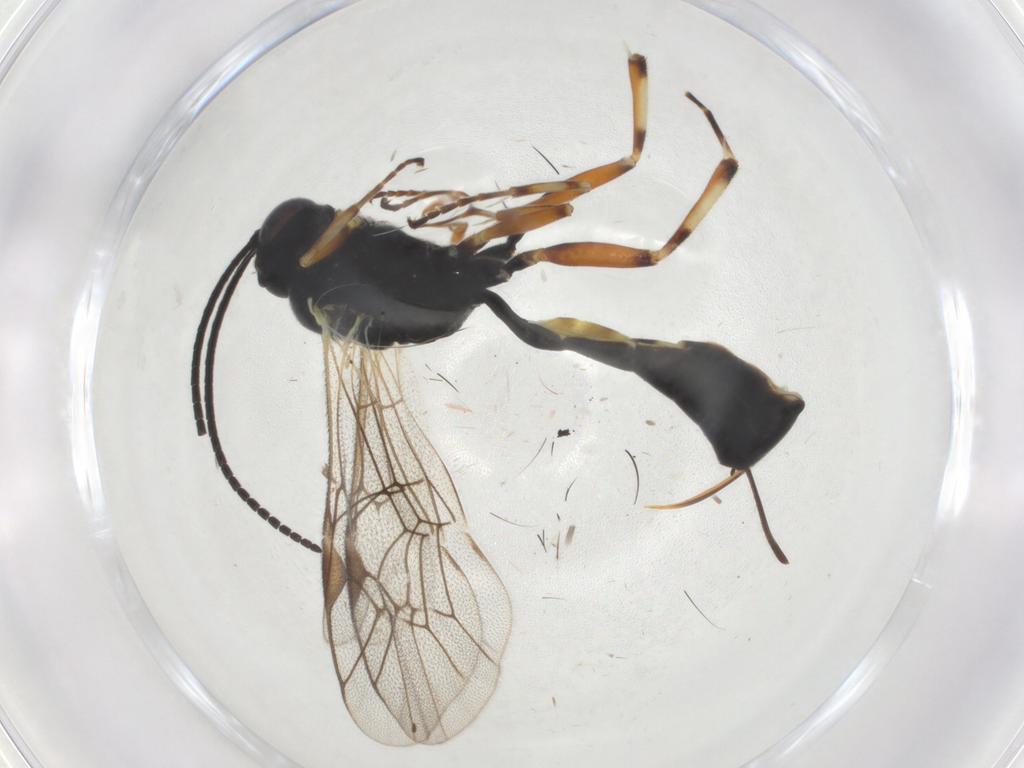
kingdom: Animalia
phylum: Arthropoda
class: Insecta
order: Hymenoptera
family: Ichneumonidae
